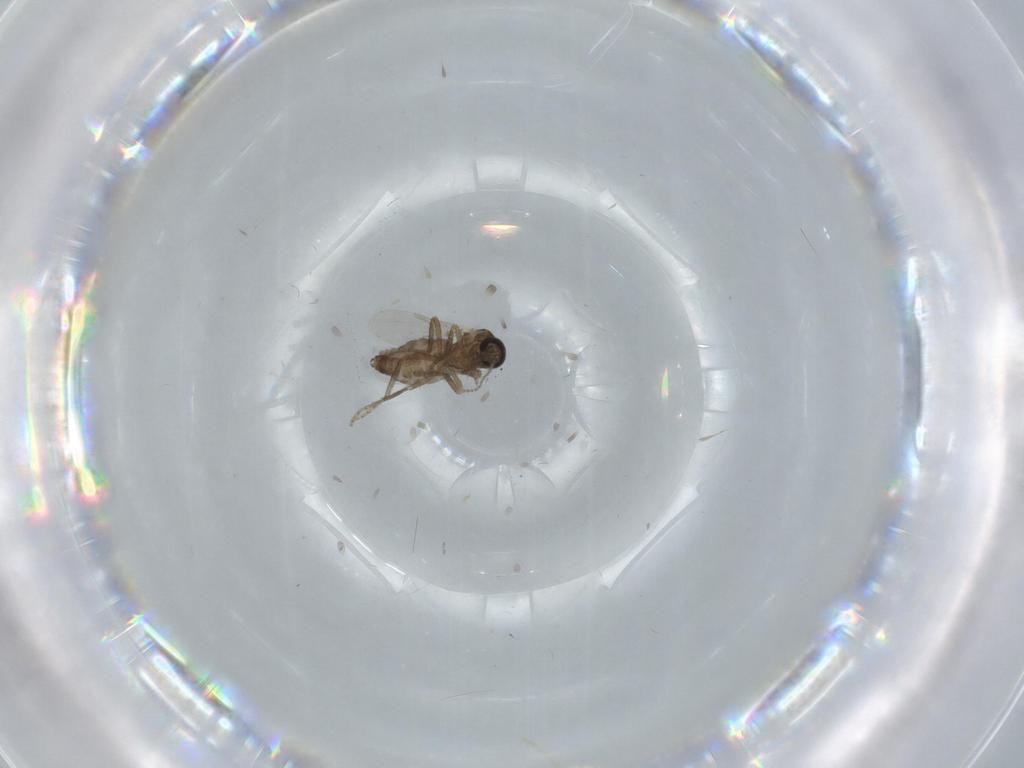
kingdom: Animalia
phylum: Arthropoda
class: Insecta
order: Diptera
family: Ceratopogonidae
